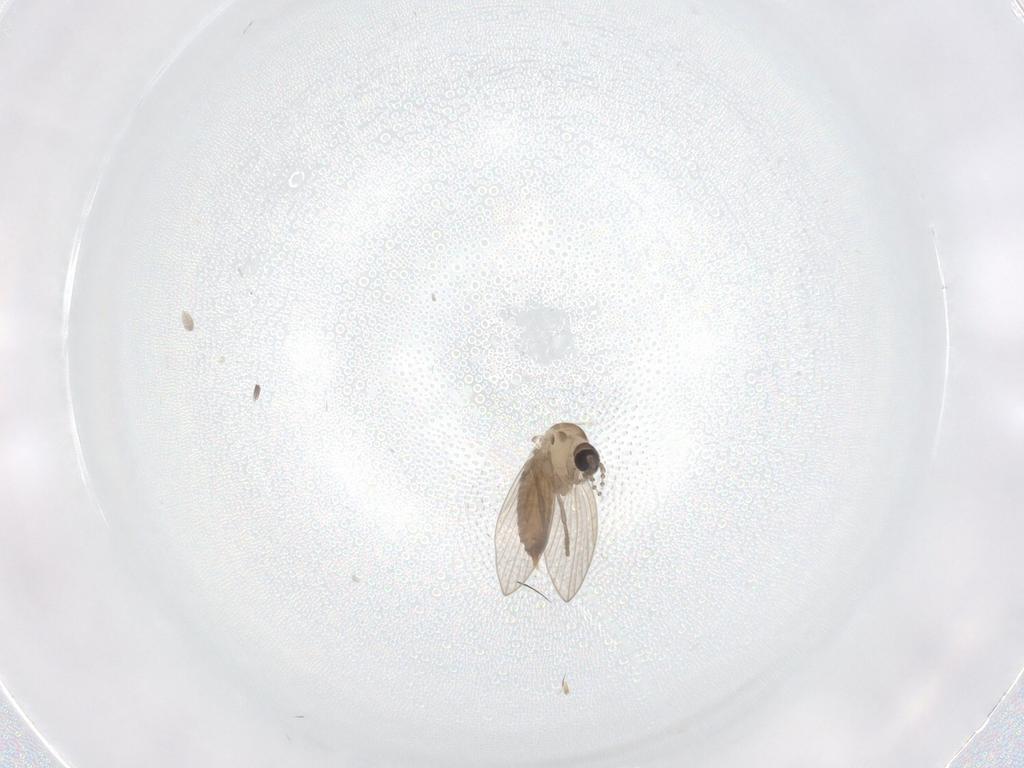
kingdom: Animalia
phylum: Arthropoda
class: Insecta
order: Diptera
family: Psychodidae
